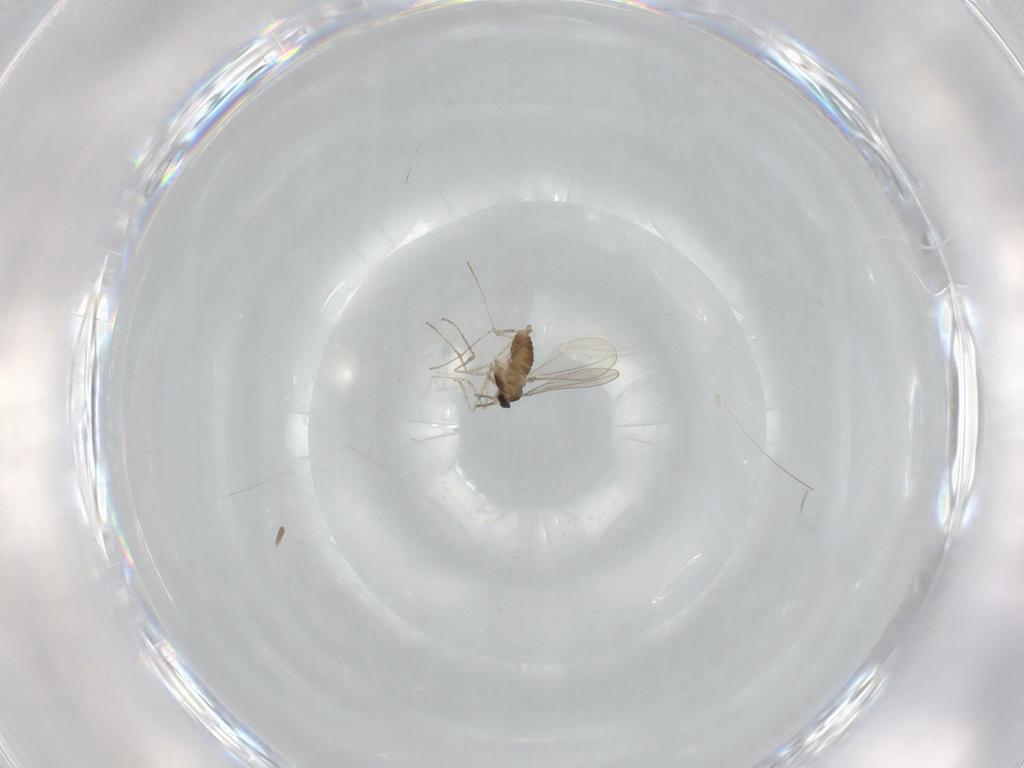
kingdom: Animalia
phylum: Arthropoda
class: Insecta
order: Diptera
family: Cecidomyiidae
